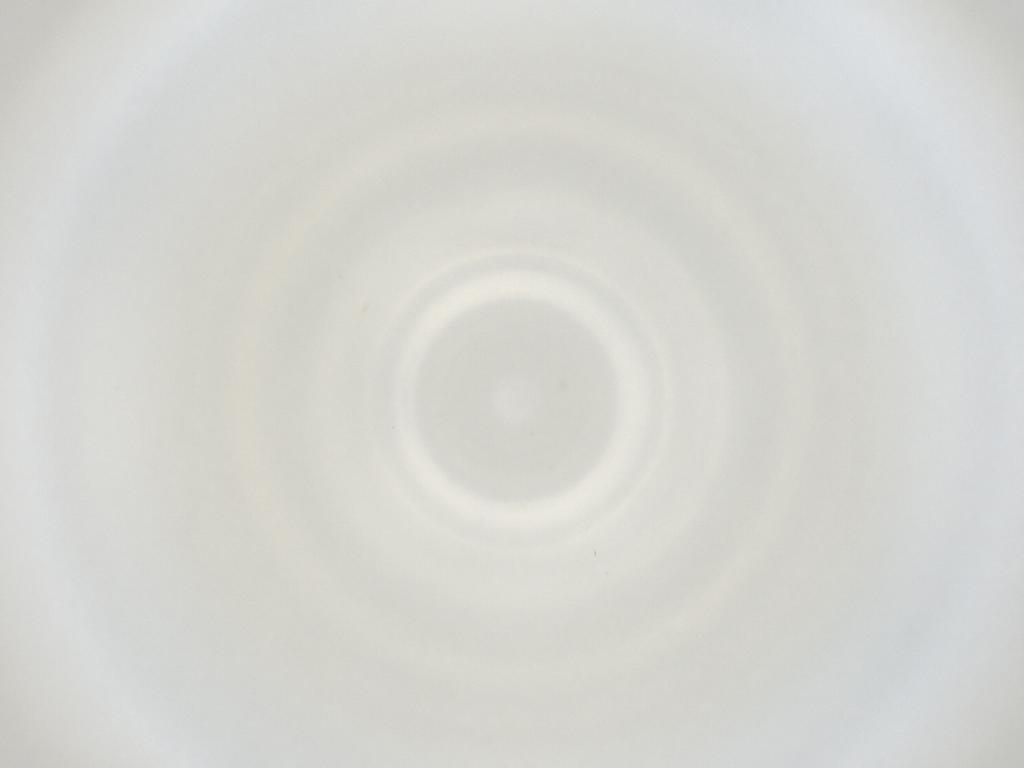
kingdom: Animalia
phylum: Arthropoda
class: Insecta
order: Diptera
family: Cecidomyiidae
